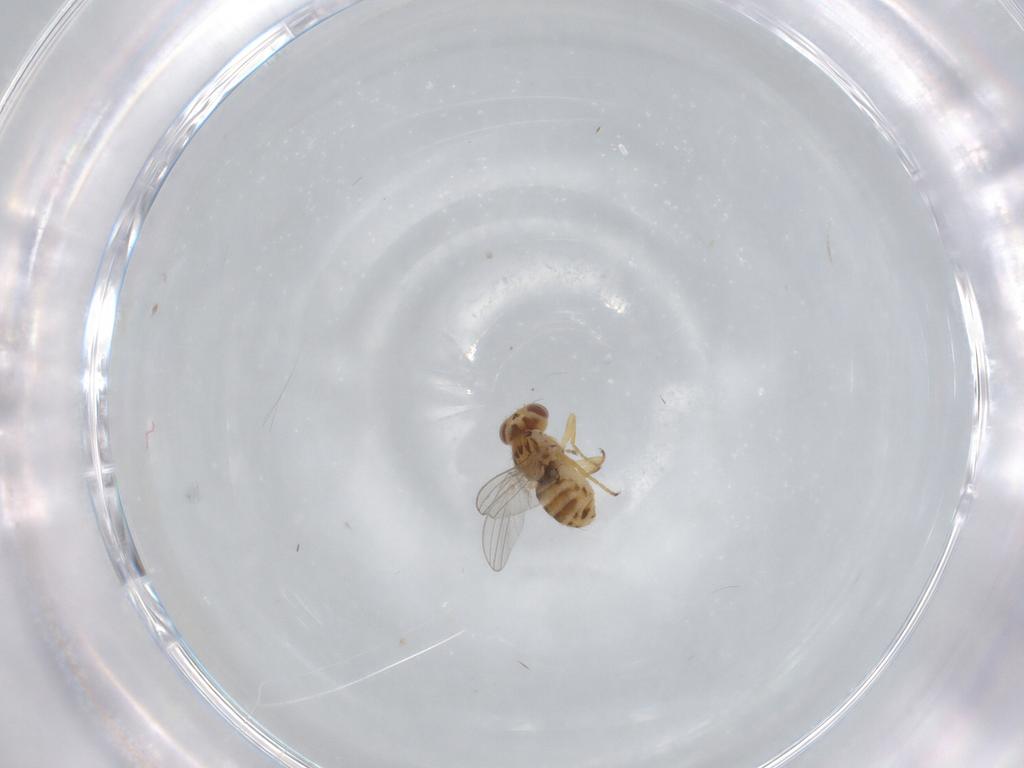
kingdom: Animalia
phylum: Arthropoda
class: Insecta
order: Diptera
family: Chyromyidae
